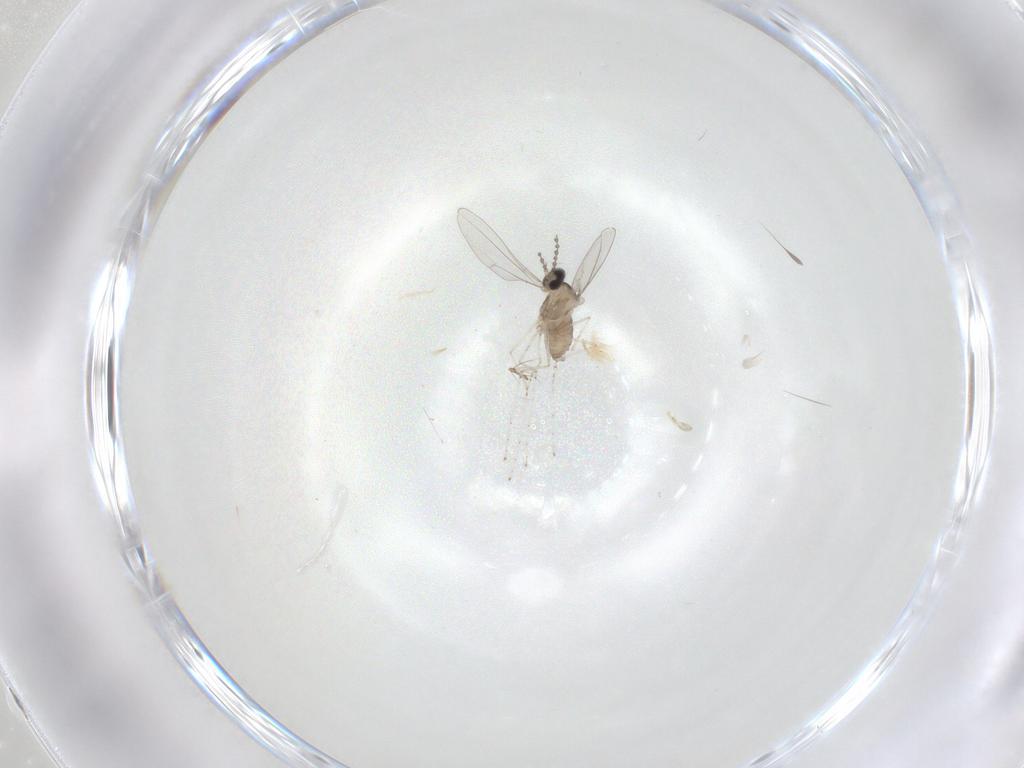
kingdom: Animalia
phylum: Arthropoda
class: Insecta
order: Diptera
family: Cecidomyiidae
